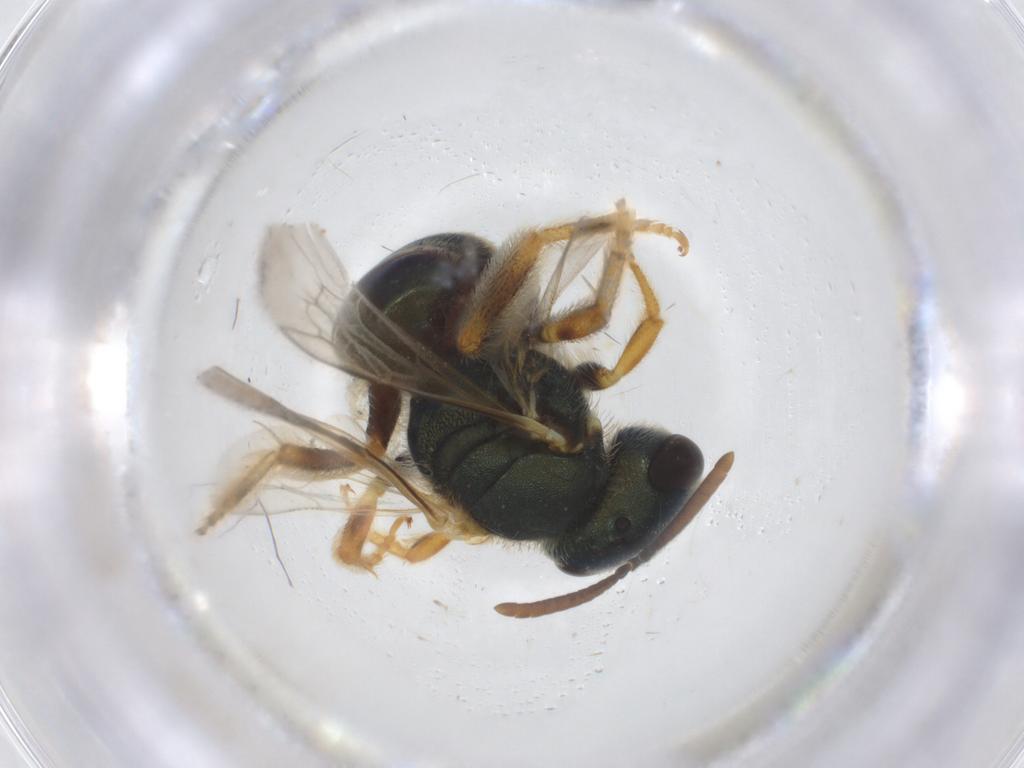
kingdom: Animalia
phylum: Arthropoda
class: Insecta
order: Hymenoptera
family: Halictidae
